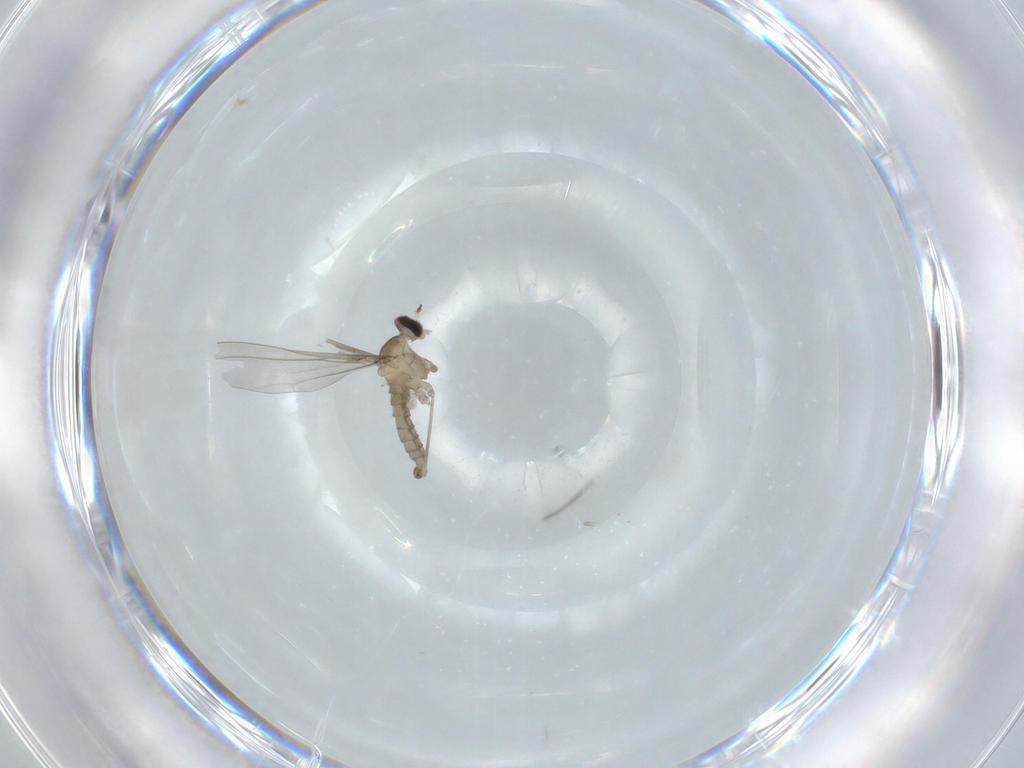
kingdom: Animalia
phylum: Arthropoda
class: Insecta
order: Diptera
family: Cecidomyiidae
